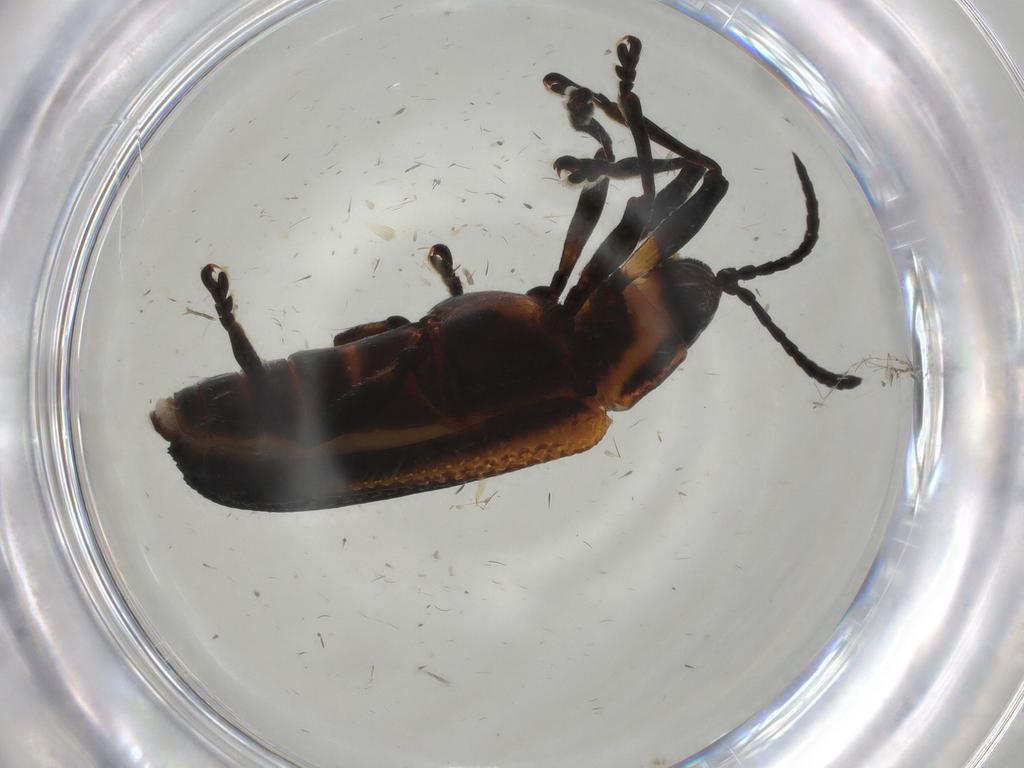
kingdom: Animalia
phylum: Arthropoda
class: Insecta
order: Coleoptera
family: Chrysomelidae
